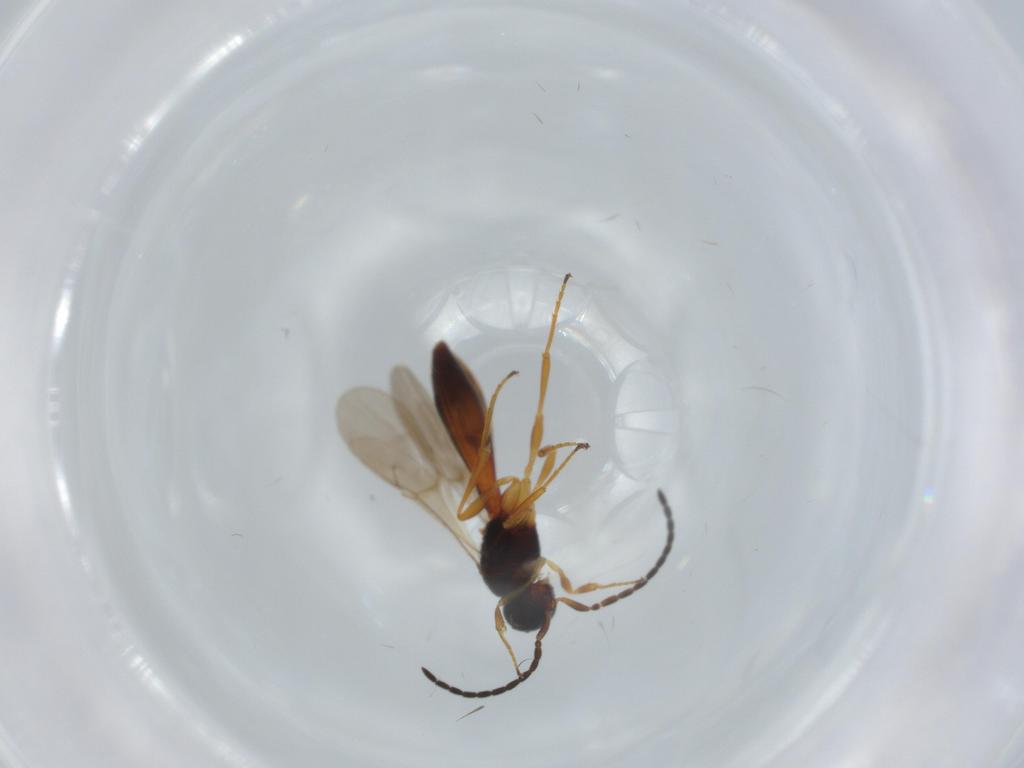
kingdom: Animalia
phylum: Arthropoda
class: Insecta
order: Hymenoptera
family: Scelionidae
